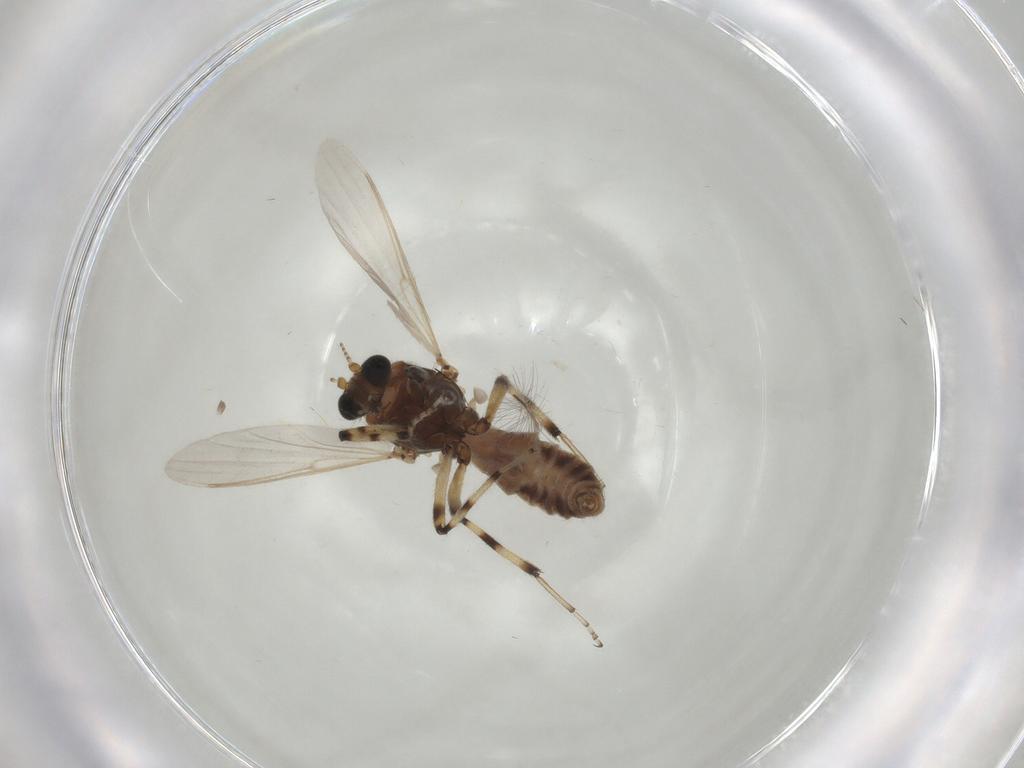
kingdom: Animalia
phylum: Arthropoda
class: Insecta
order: Diptera
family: Ceratopogonidae
